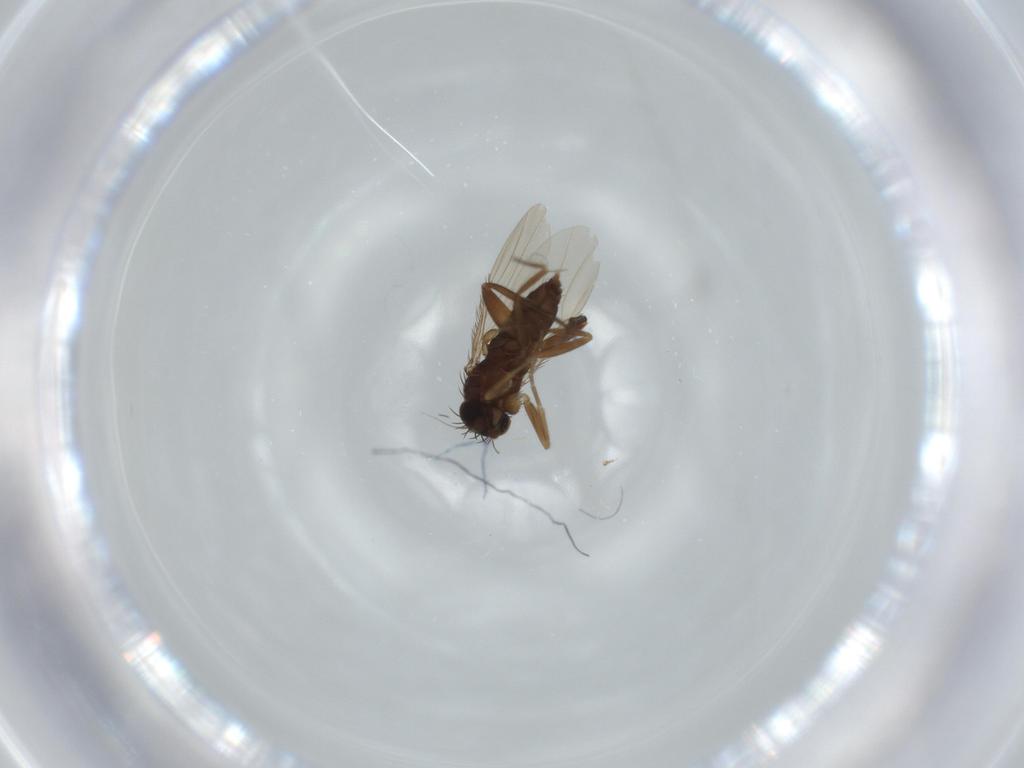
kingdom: Animalia
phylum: Arthropoda
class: Insecta
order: Diptera
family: Phoridae
